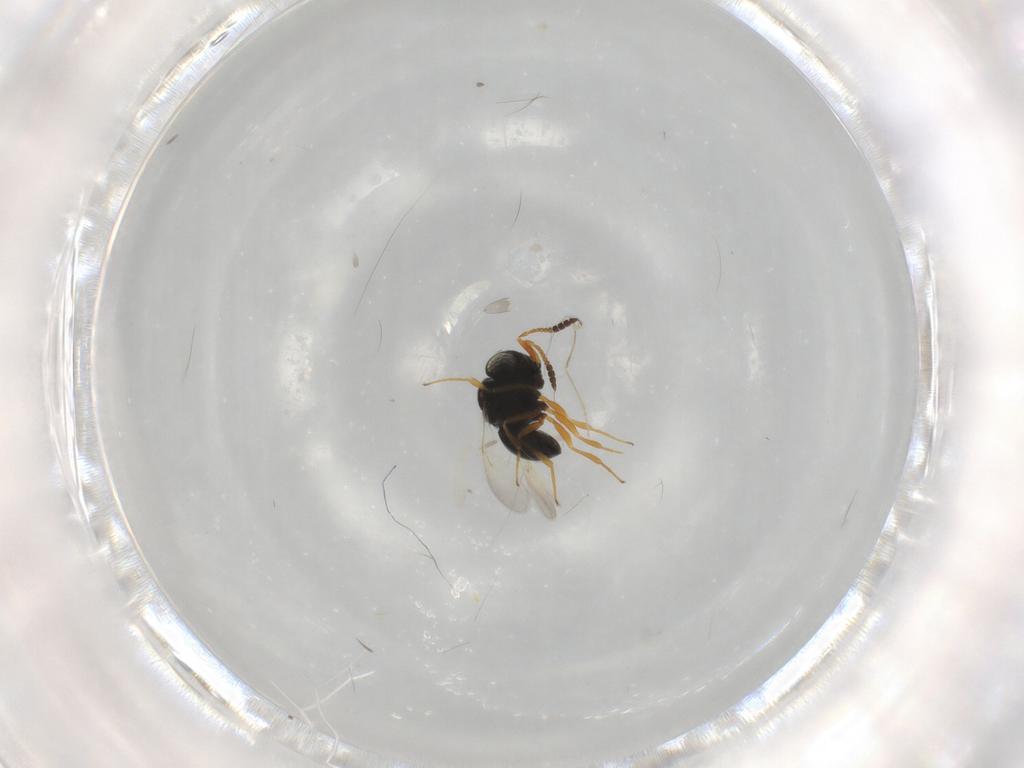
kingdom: Animalia
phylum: Arthropoda
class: Insecta
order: Hymenoptera
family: Scelionidae
